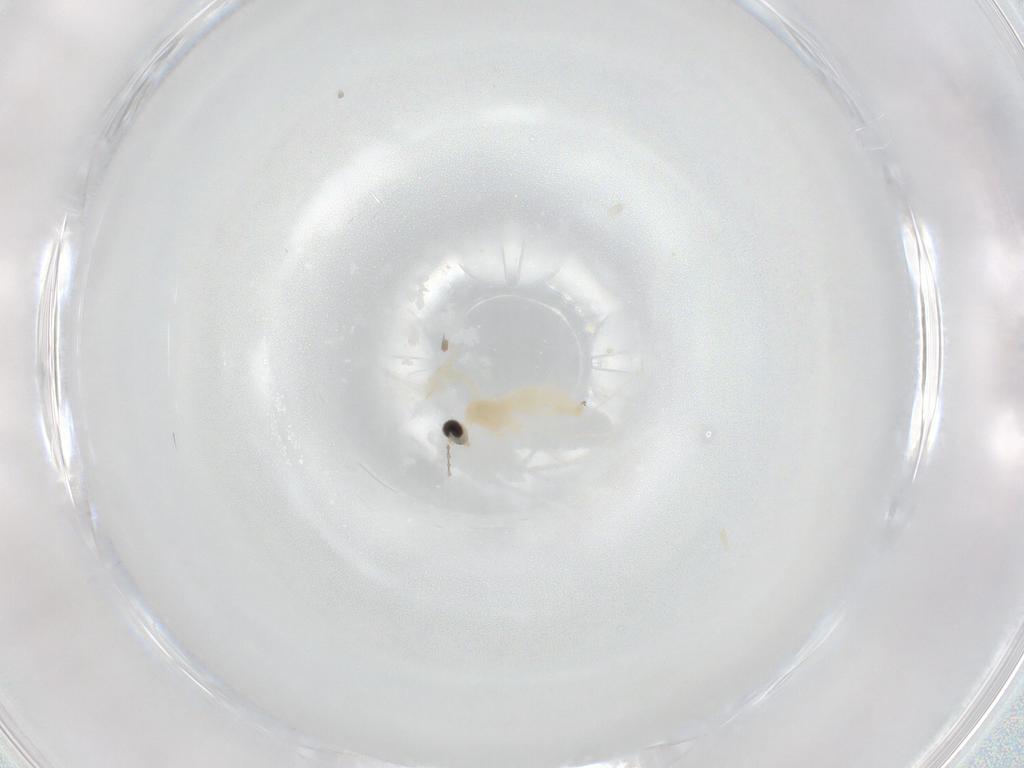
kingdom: Animalia
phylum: Arthropoda
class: Insecta
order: Diptera
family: Cecidomyiidae
